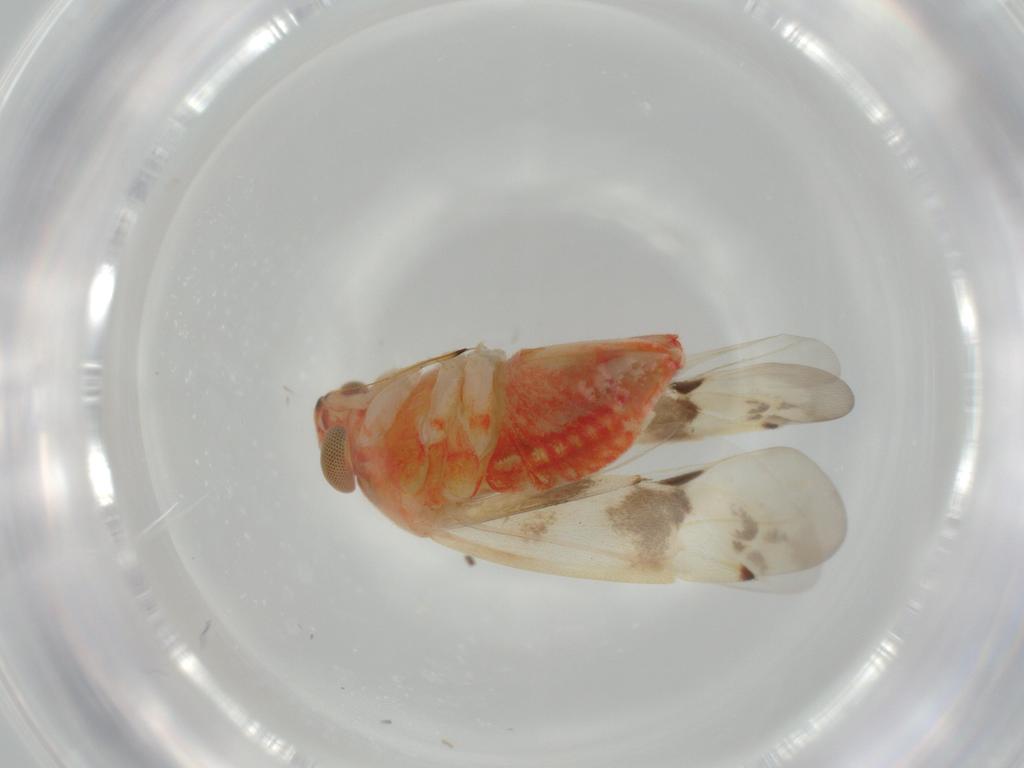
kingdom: Animalia
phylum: Arthropoda
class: Insecta
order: Hemiptera
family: Miridae
